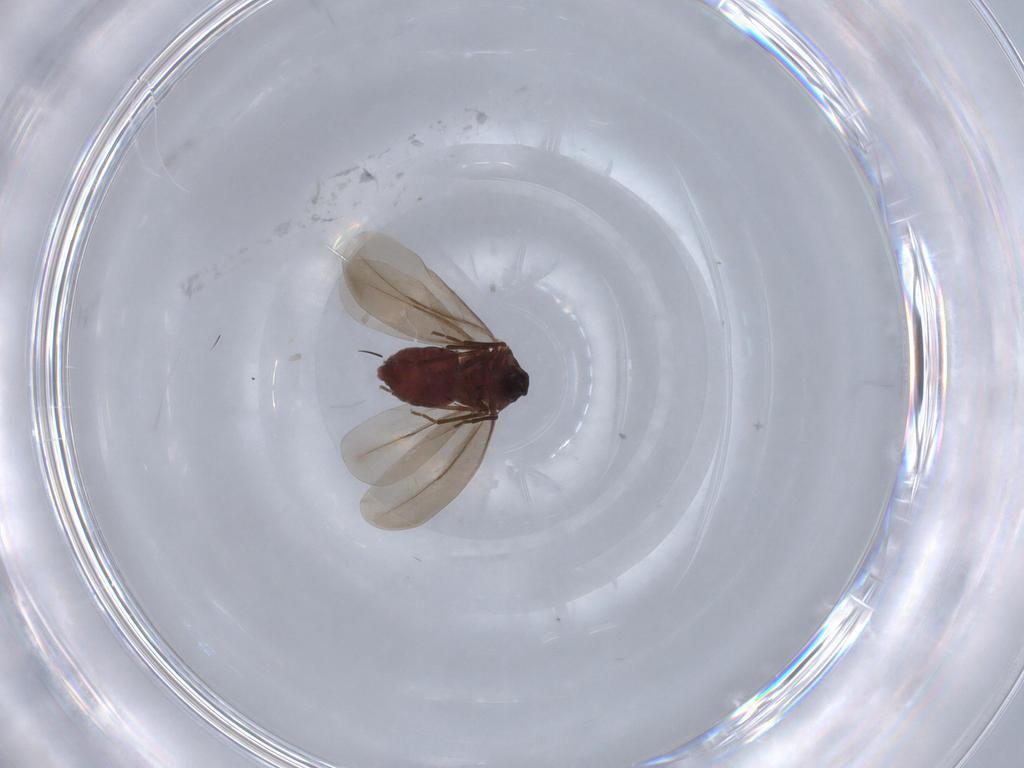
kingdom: Animalia
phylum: Arthropoda
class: Insecta
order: Hemiptera
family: Aleyrodidae
